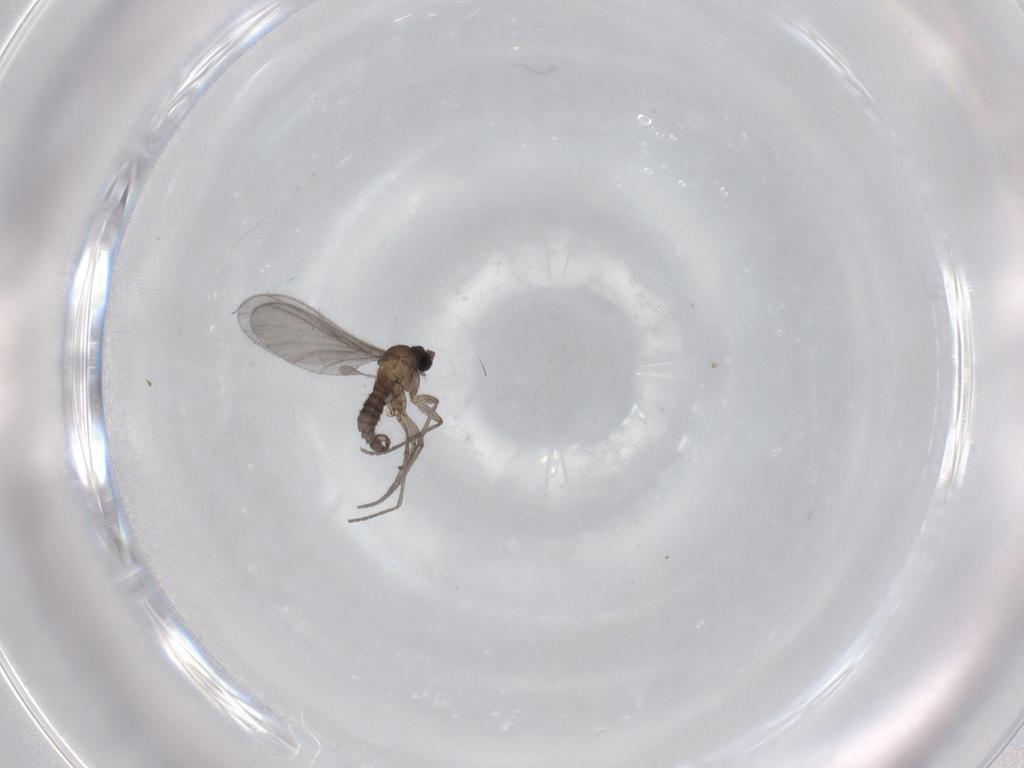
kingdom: Animalia
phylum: Arthropoda
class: Insecta
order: Diptera
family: Sciaridae
